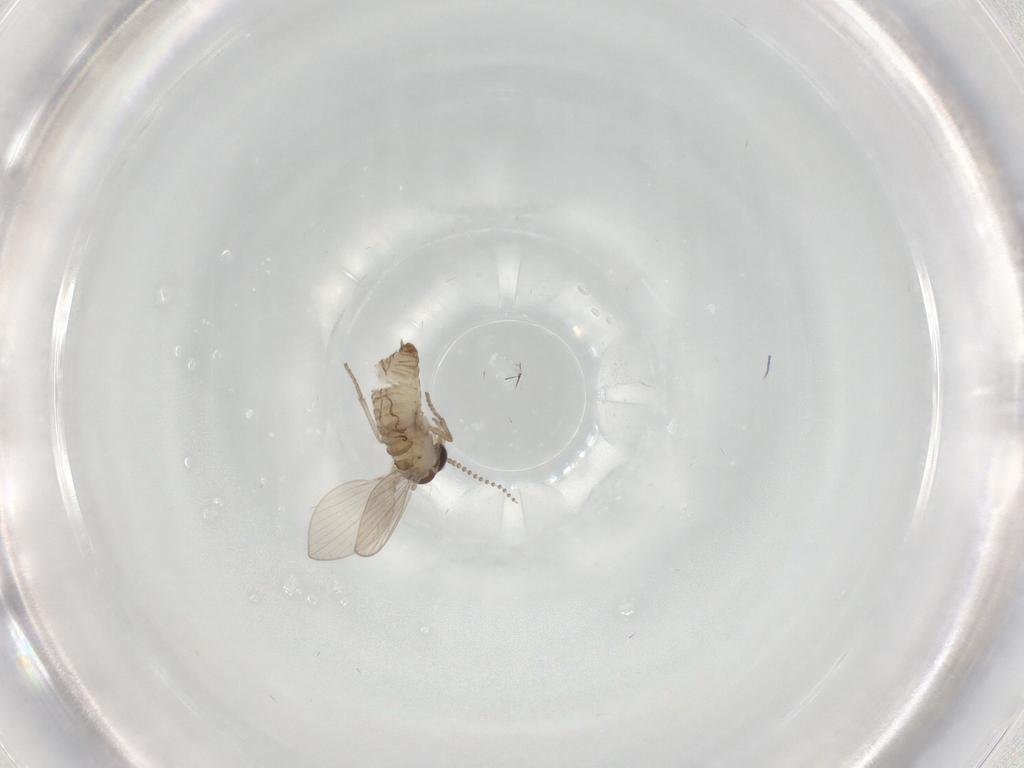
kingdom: Animalia
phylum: Arthropoda
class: Insecta
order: Diptera
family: Psychodidae
